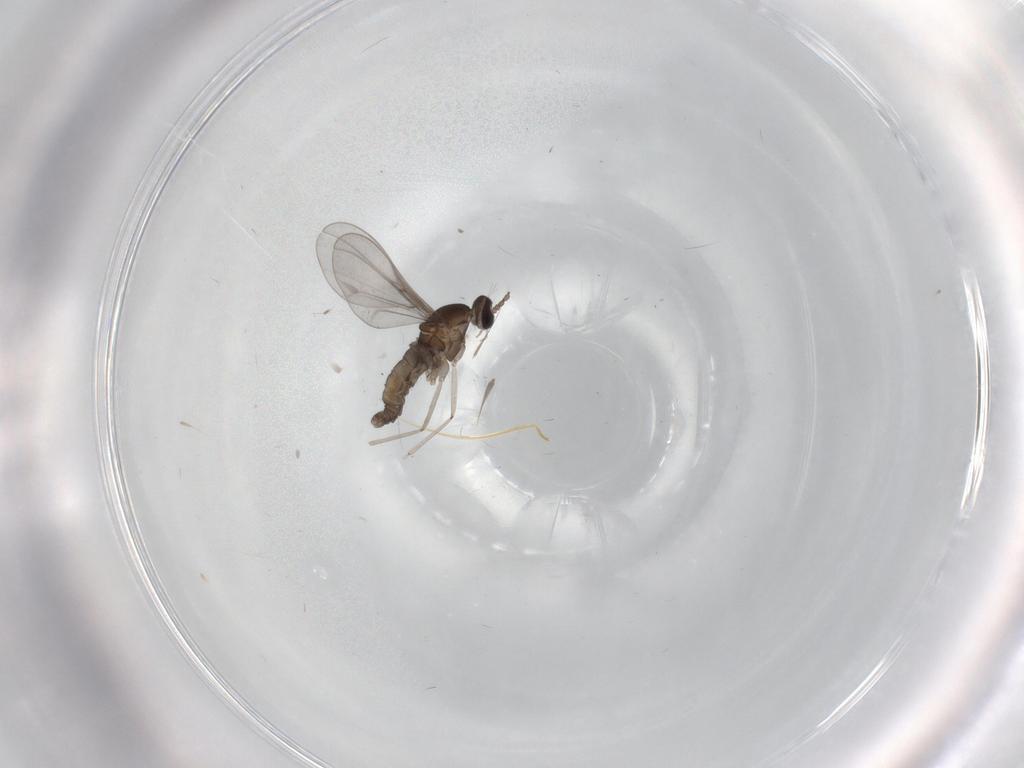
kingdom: Animalia
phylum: Arthropoda
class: Insecta
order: Diptera
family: Cecidomyiidae
